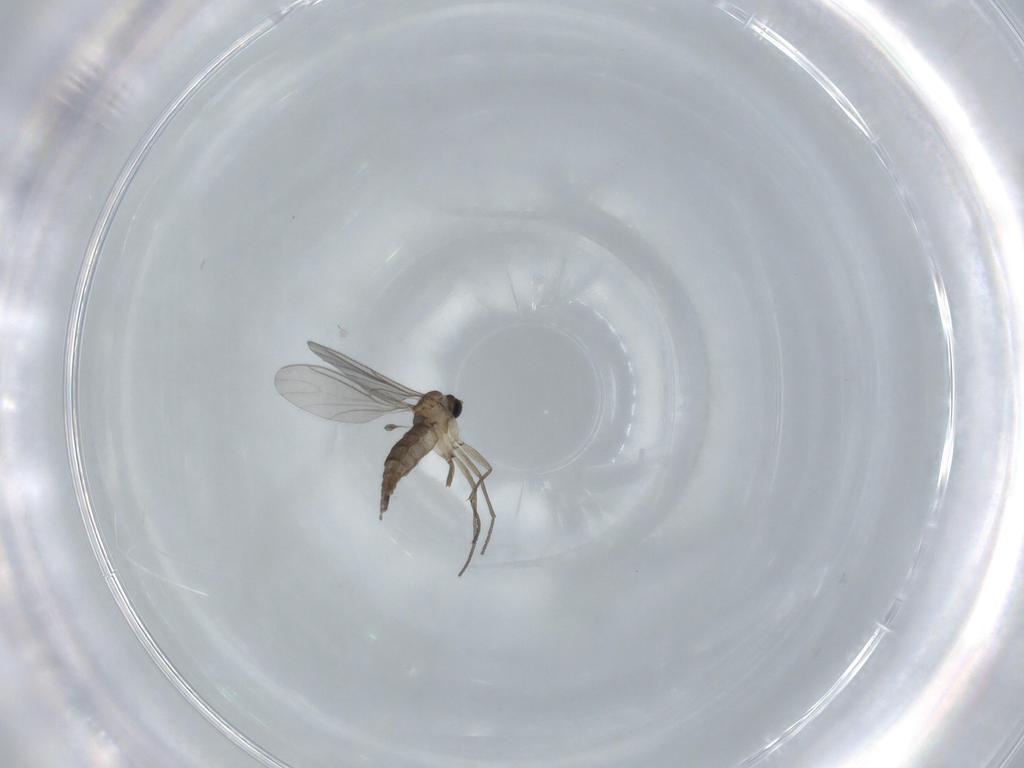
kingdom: Animalia
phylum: Arthropoda
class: Insecta
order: Diptera
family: Sciaridae
